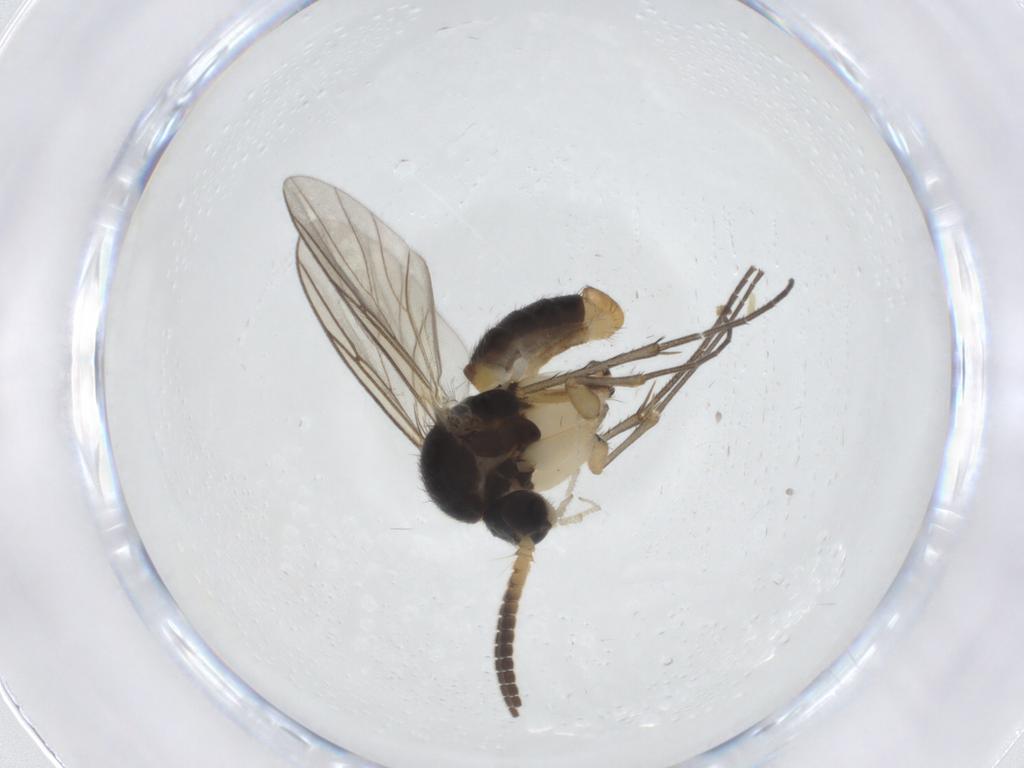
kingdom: Animalia
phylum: Arthropoda
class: Insecta
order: Diptera
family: Mycetophilidae
